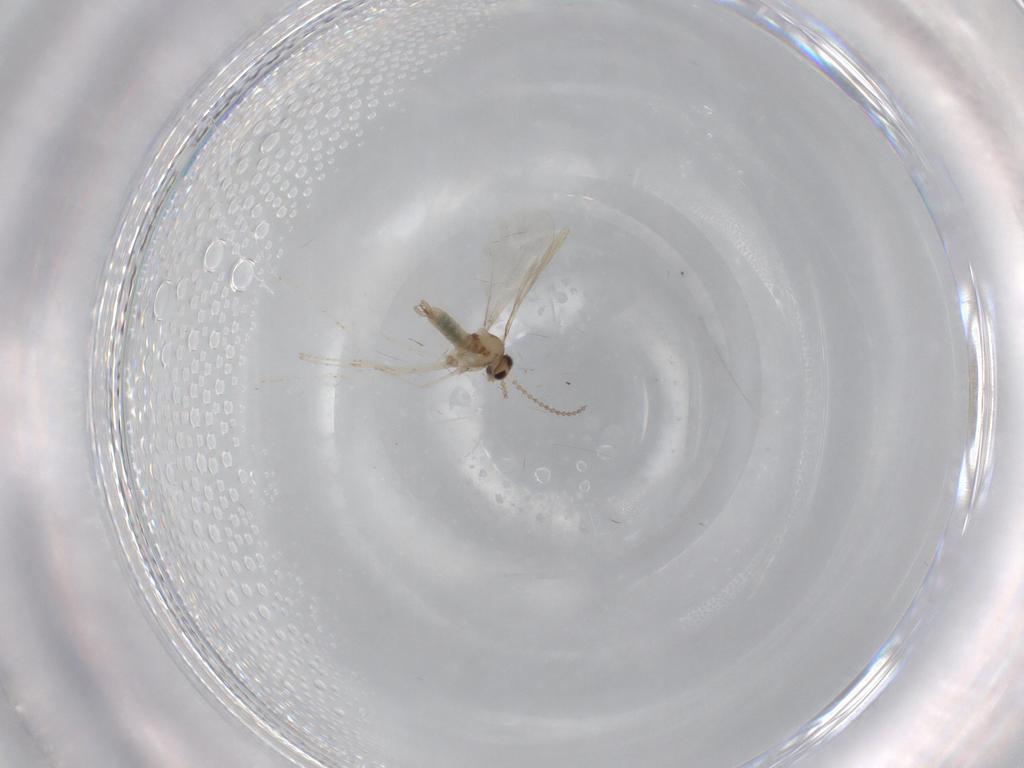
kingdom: Animalia
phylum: Arthropoda
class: Insecta
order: Diptera
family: Cecidomyiidae
